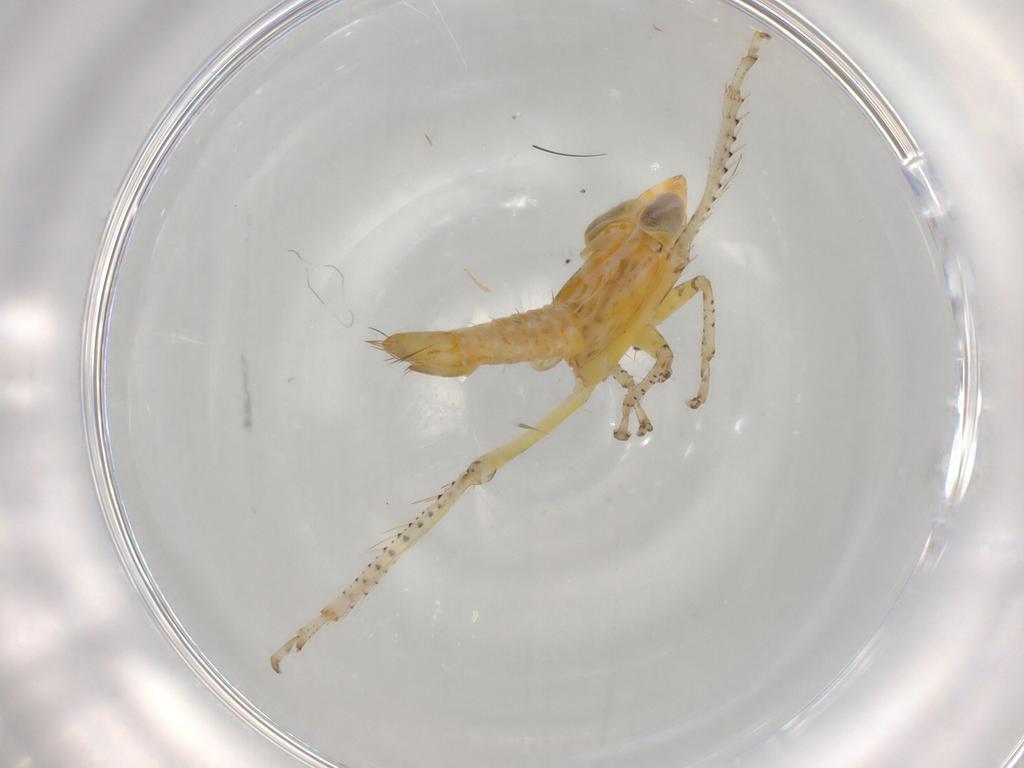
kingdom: Animalia
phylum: Arthropoda
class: Insecta
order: Hemiptera
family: Cicadellidae
